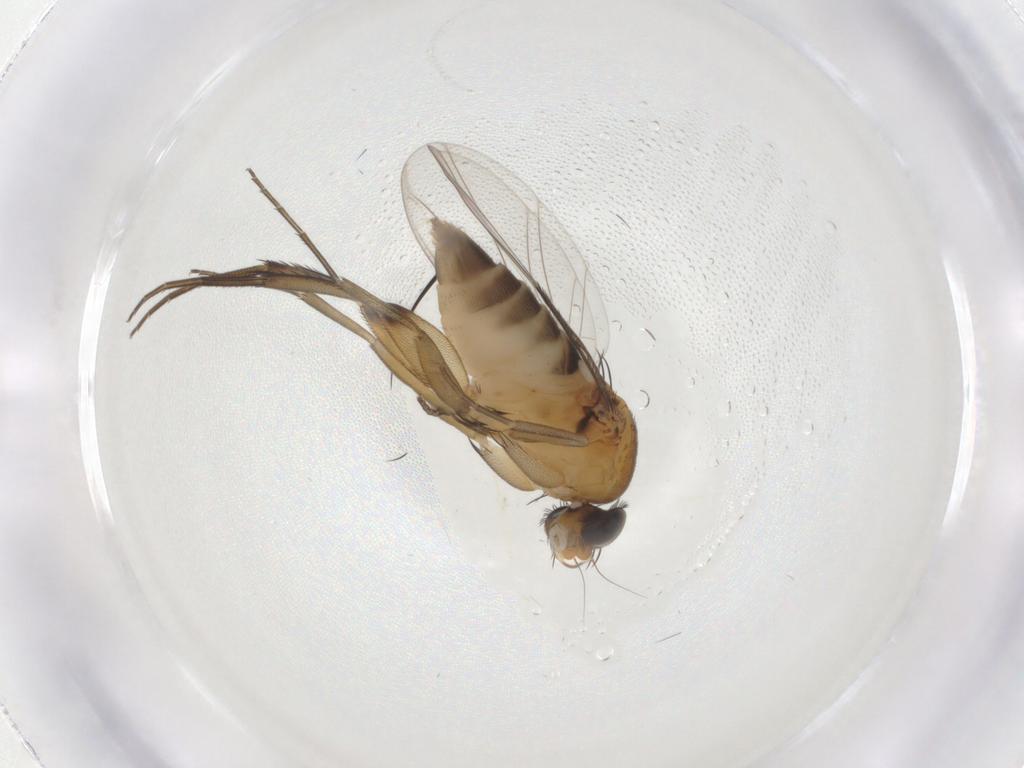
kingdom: Animalia
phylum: Arthropoda
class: Insecta
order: Diptera
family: Phoridae
